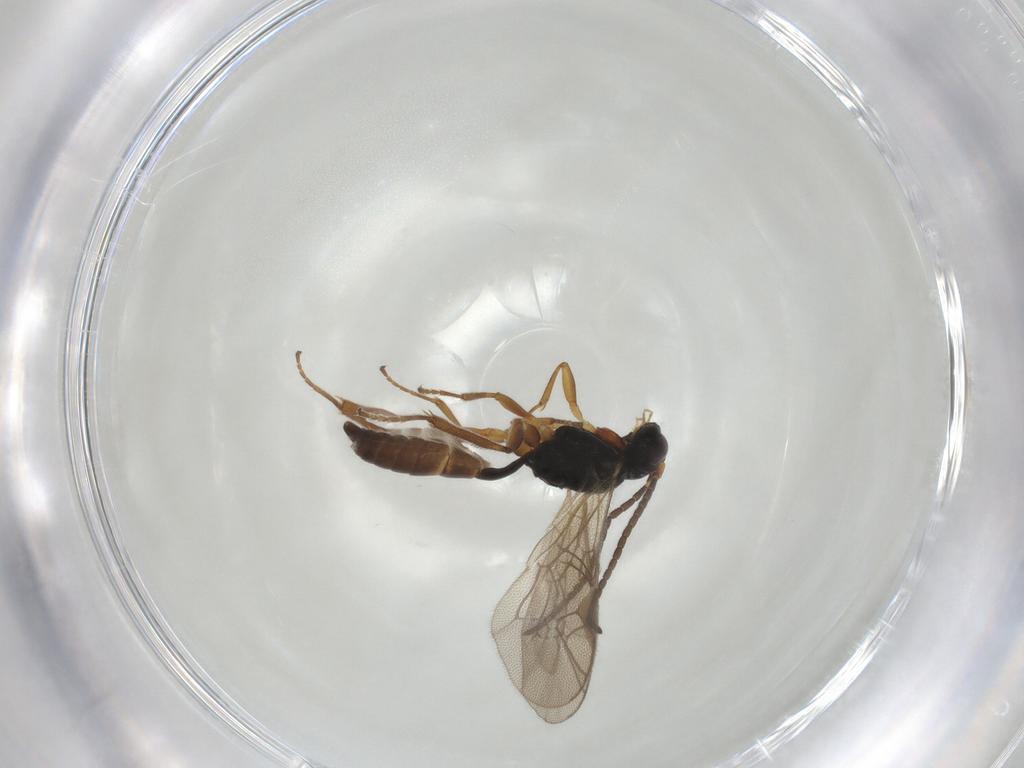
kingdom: Animalia
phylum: Arthropoda
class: Insecta
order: Hymenoptera
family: Ichneumonidae
